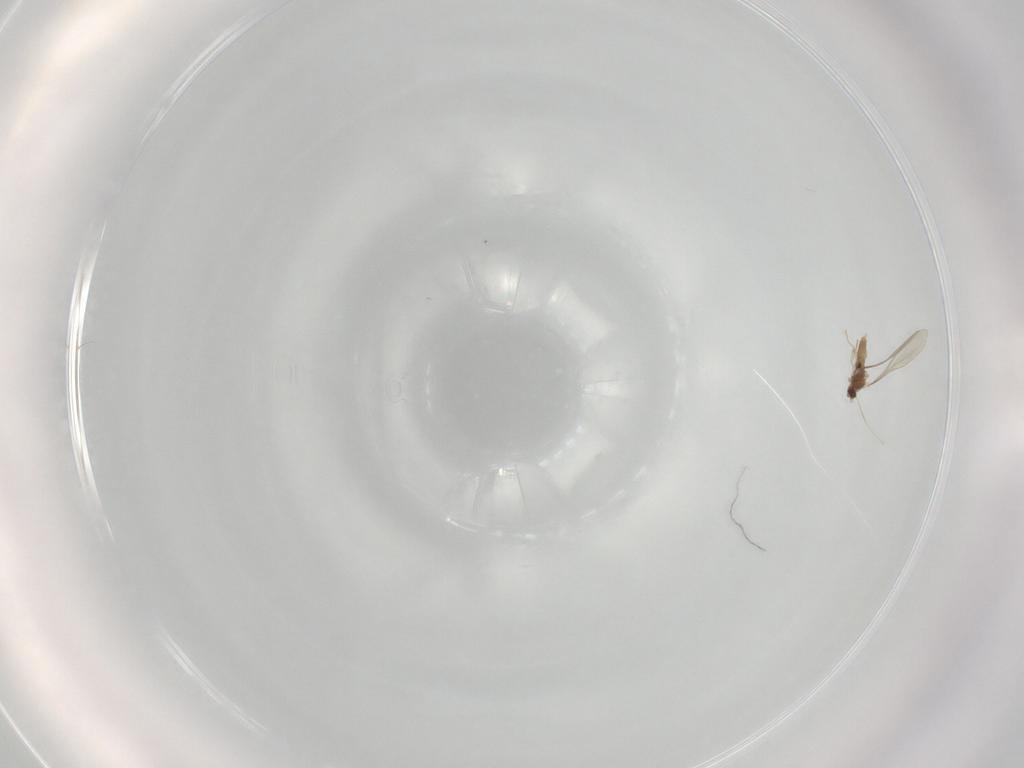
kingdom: Animalia
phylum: Arthropoda
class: Insecta
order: Diptera
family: Cecidomyiidae
